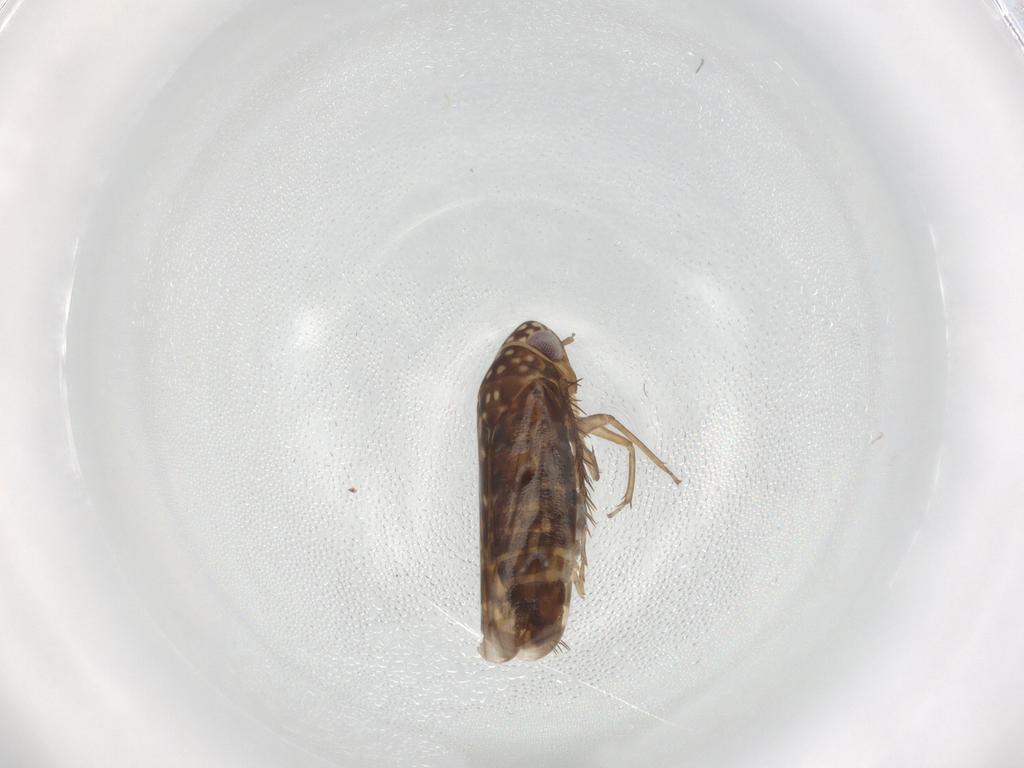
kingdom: Animalia
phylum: Arthropoda
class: Insecta
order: Hemiptera
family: Cicadellidae
